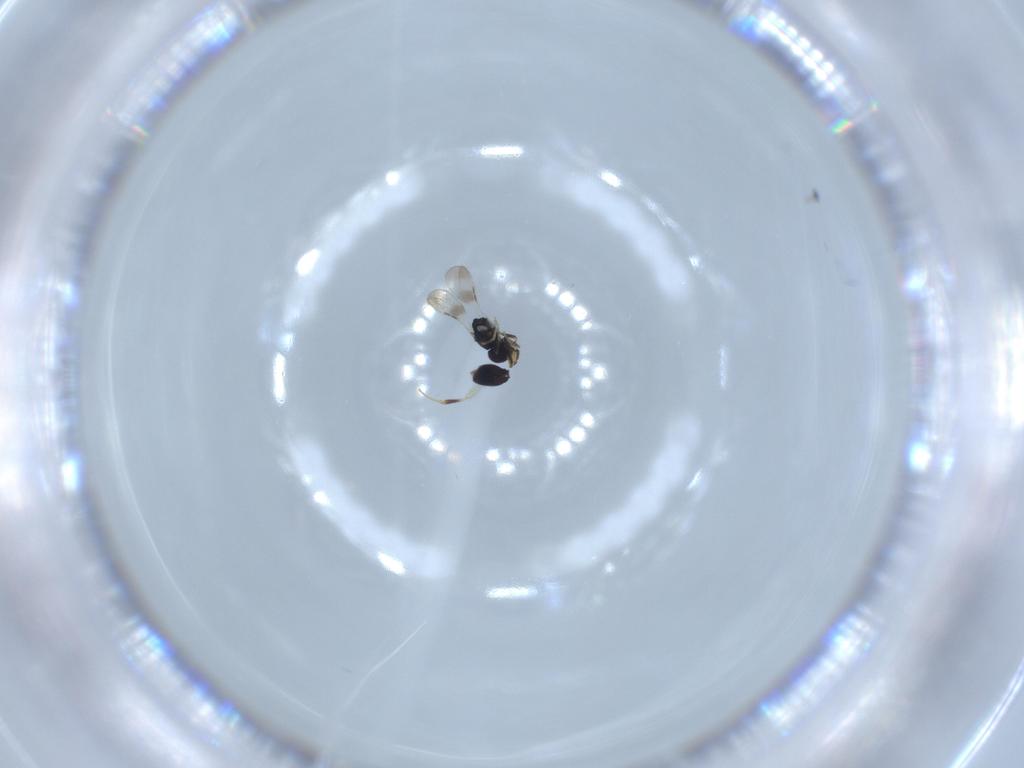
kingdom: Animalia
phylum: Arthropoda
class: Insecta
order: Hymenoptera
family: Ceraphronidae
